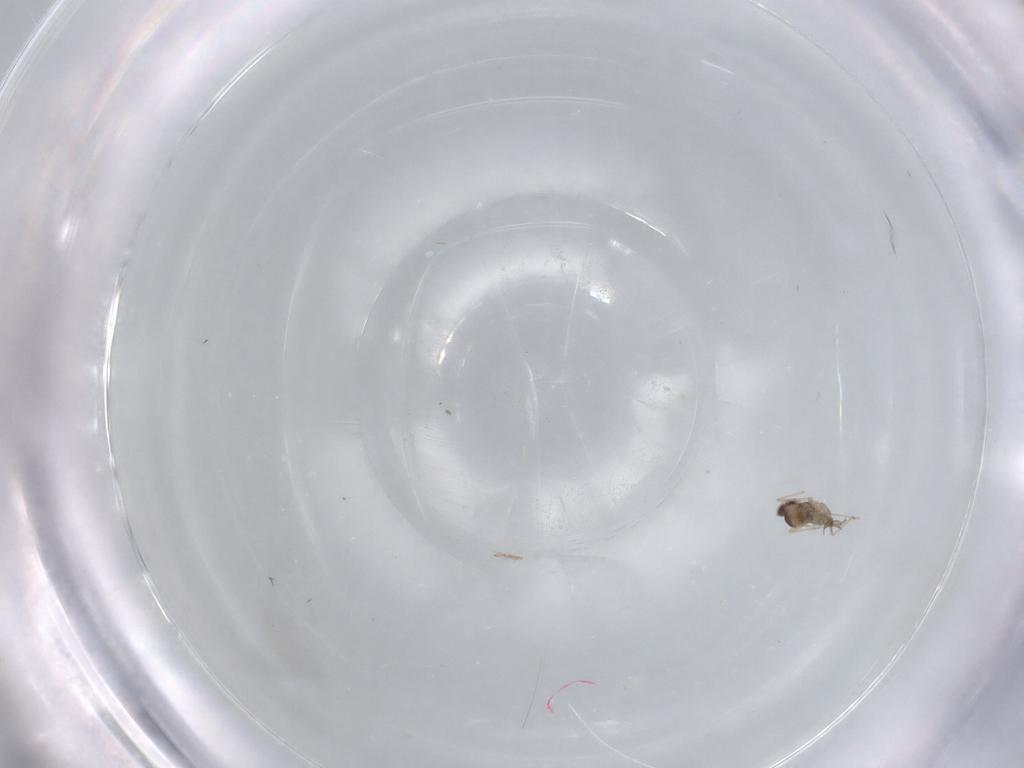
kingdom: Animalia
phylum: Arthropoda
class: Insecta
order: Diptera
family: Cecidomyiidae
